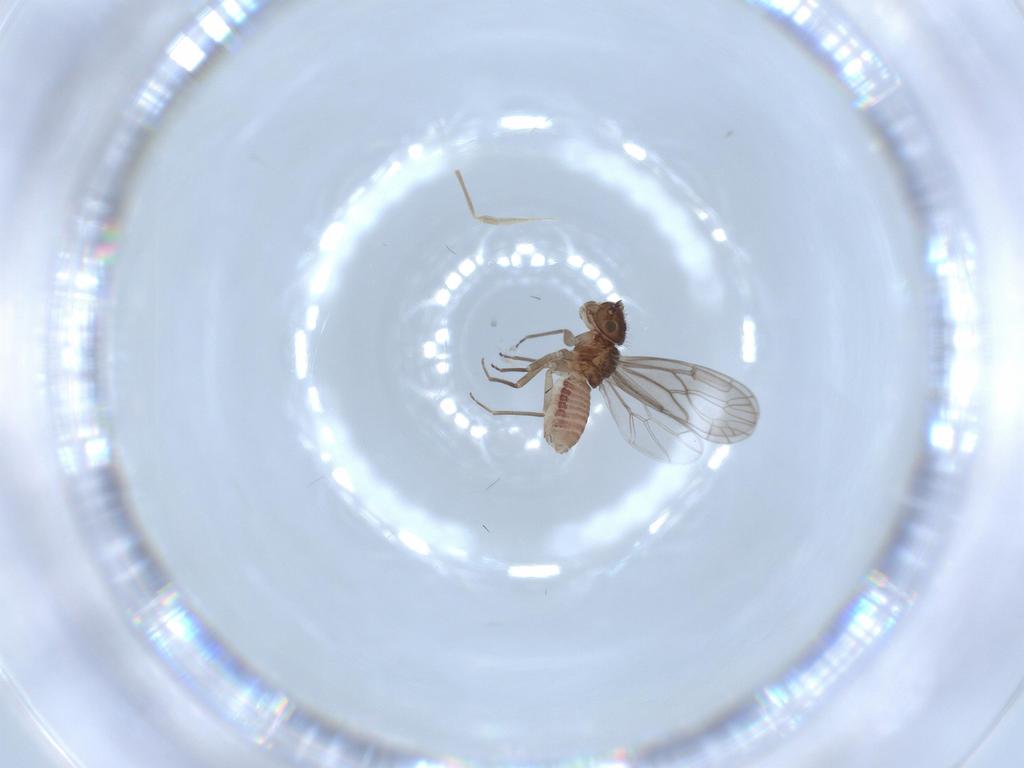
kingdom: Animalia
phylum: Arthropoda
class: Insecta
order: Psocodea
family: Ectopsocidae
